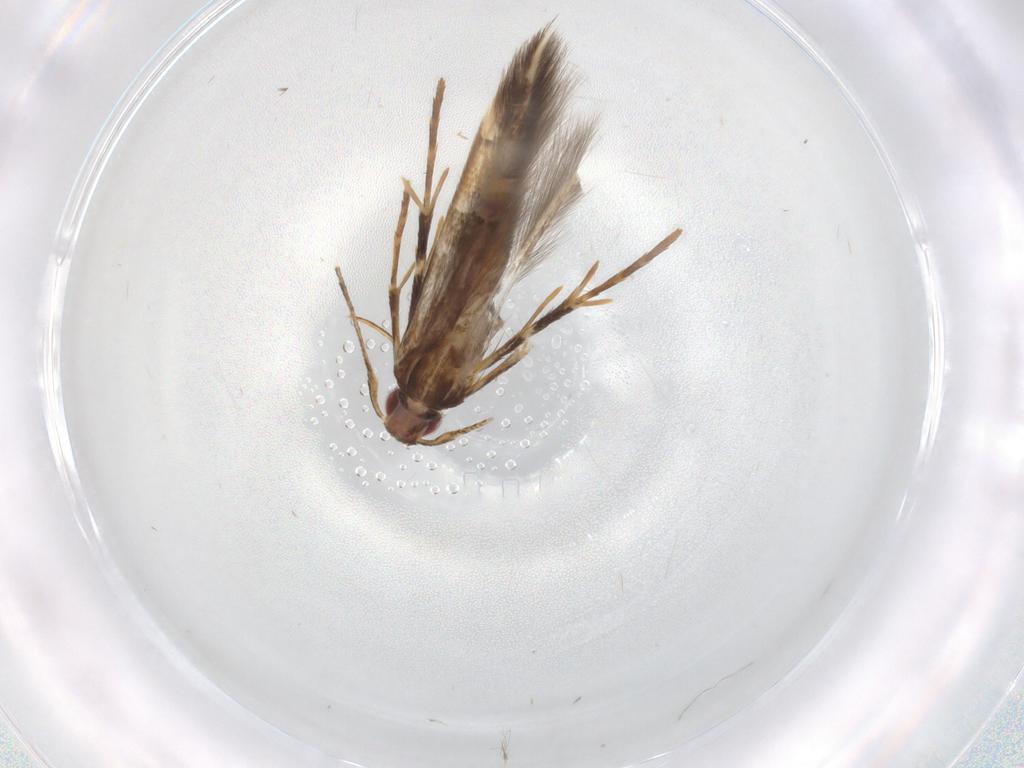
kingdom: Animalia
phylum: Arthropoda
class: Insecta
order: Lepidoptera
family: Cosmopterigidae
